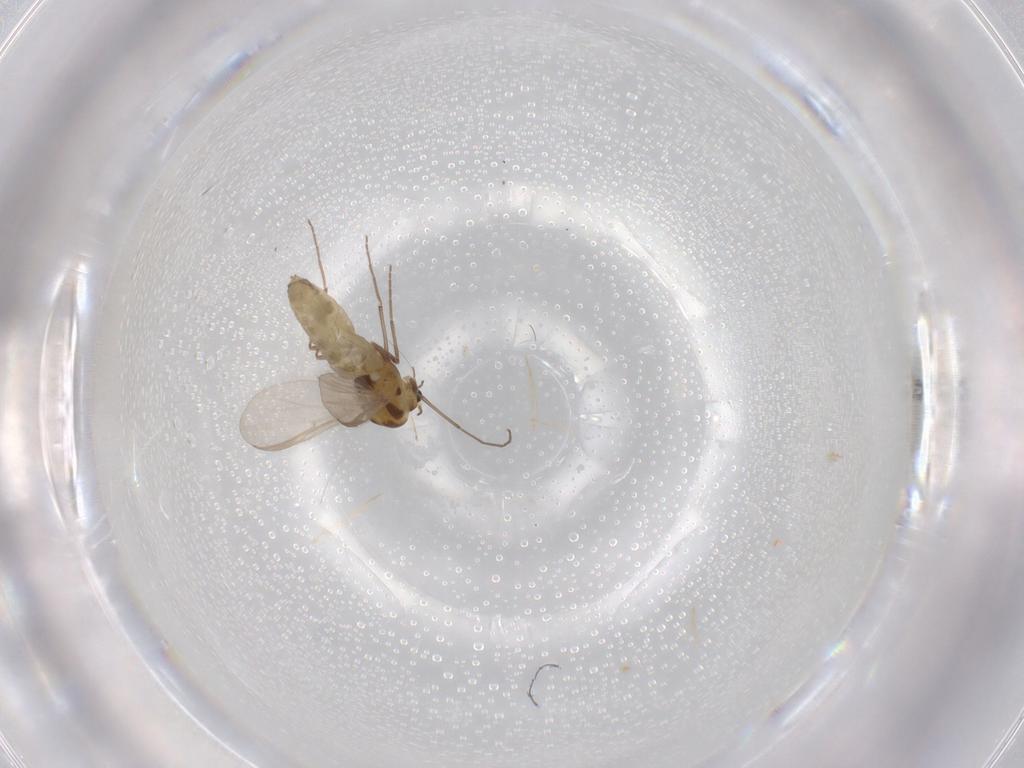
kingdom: Animalia
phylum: Arthropoda
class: Insecta
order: Diptera
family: Chironomidae
